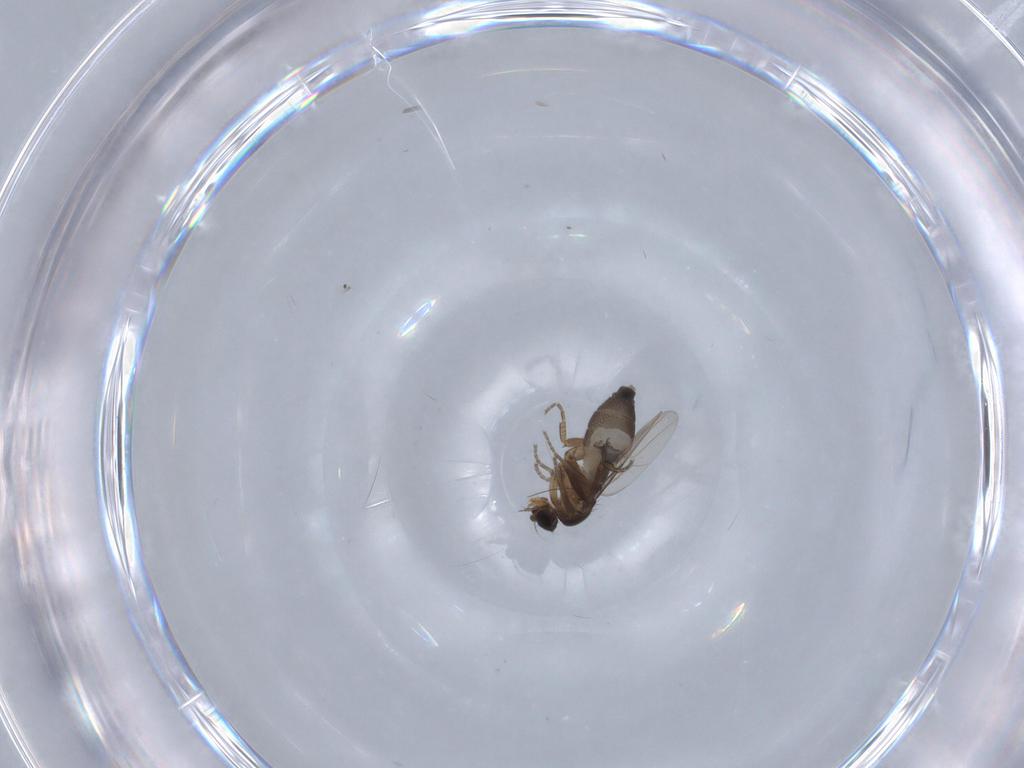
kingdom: Animalia
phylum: Arthropoda
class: Insecta
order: Diptera
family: Phoridae
